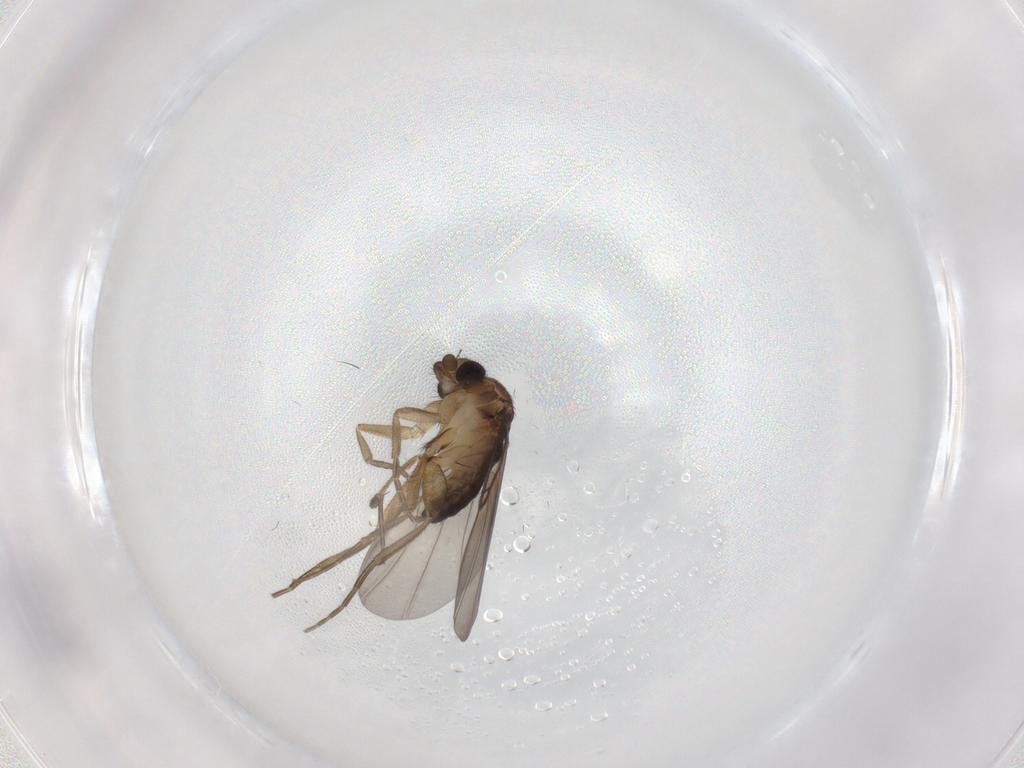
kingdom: Animalia
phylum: Arthropoda
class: Insecta
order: Diptera
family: Phoridae
